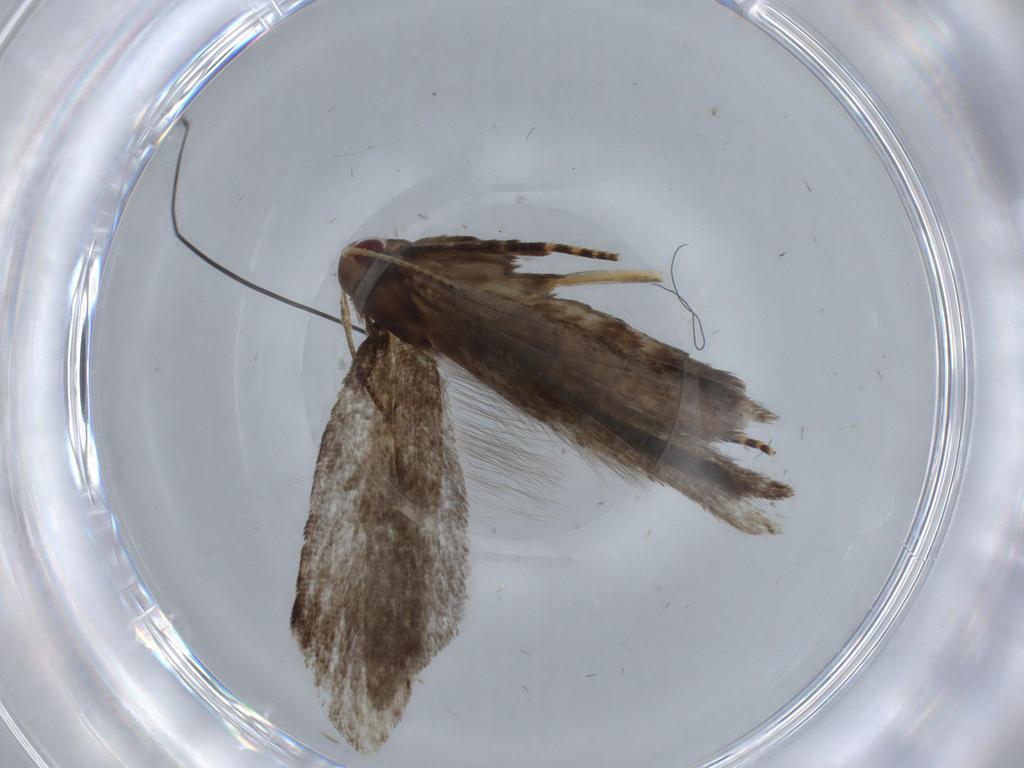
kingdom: Animalia
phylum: Arthropoda
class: Insecta
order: Lepidoptera
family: Gelechiidae
